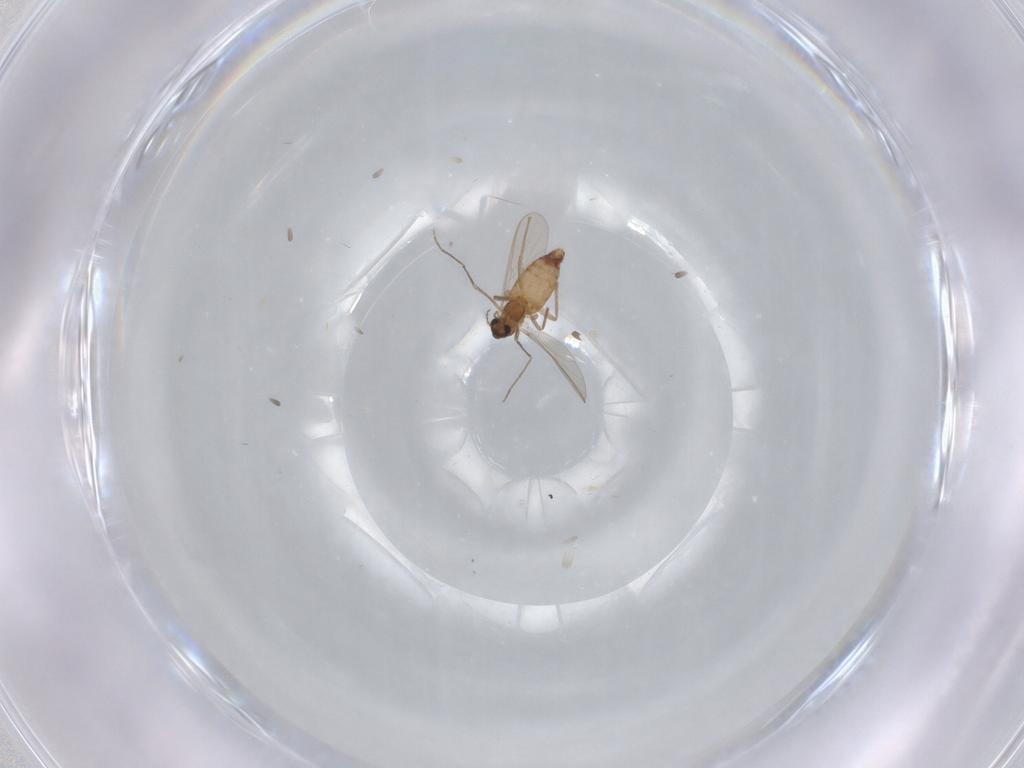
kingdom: Animalia
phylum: Arthropoda
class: Insecta
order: Diptera
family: Chironomidae
